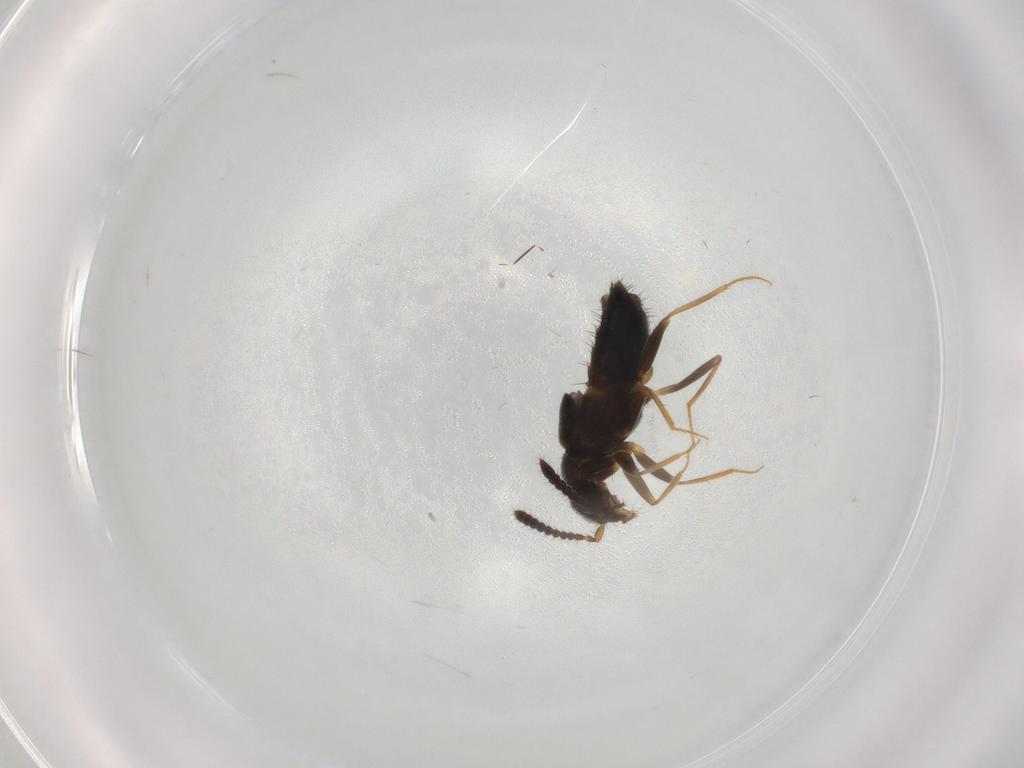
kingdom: Animalia
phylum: Arthropoda
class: Insecta
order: Coleoptera
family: Staphylinidae
